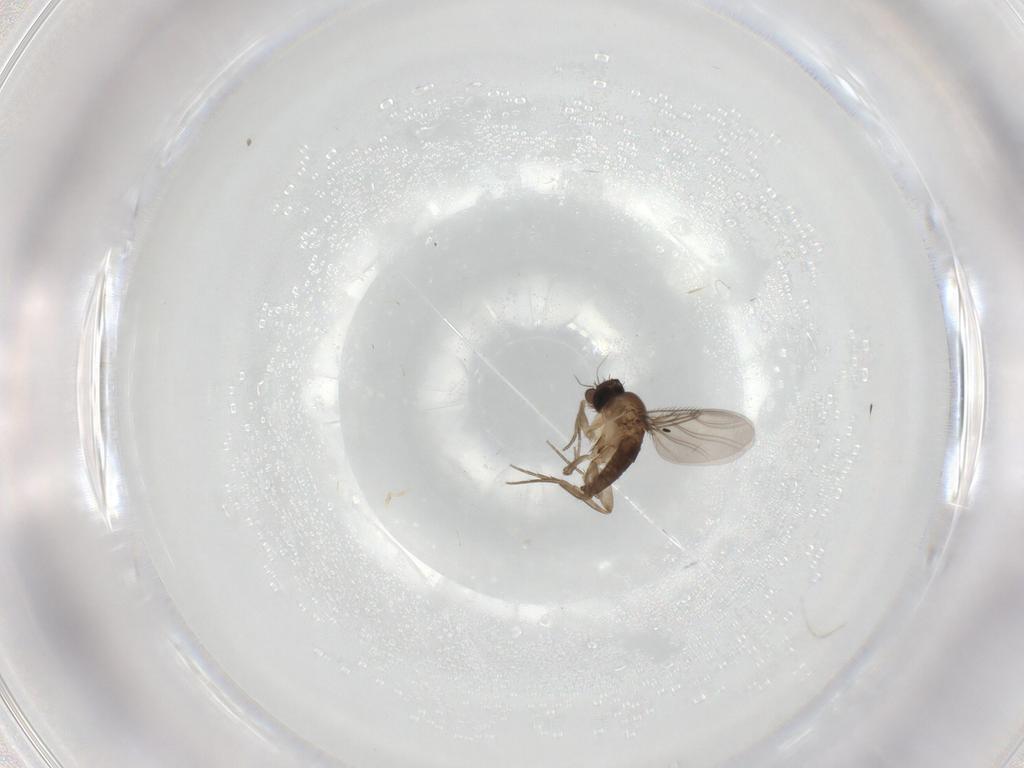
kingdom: Animalia
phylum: Arthropoda
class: Insecta
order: Diptera
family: Phoridae
